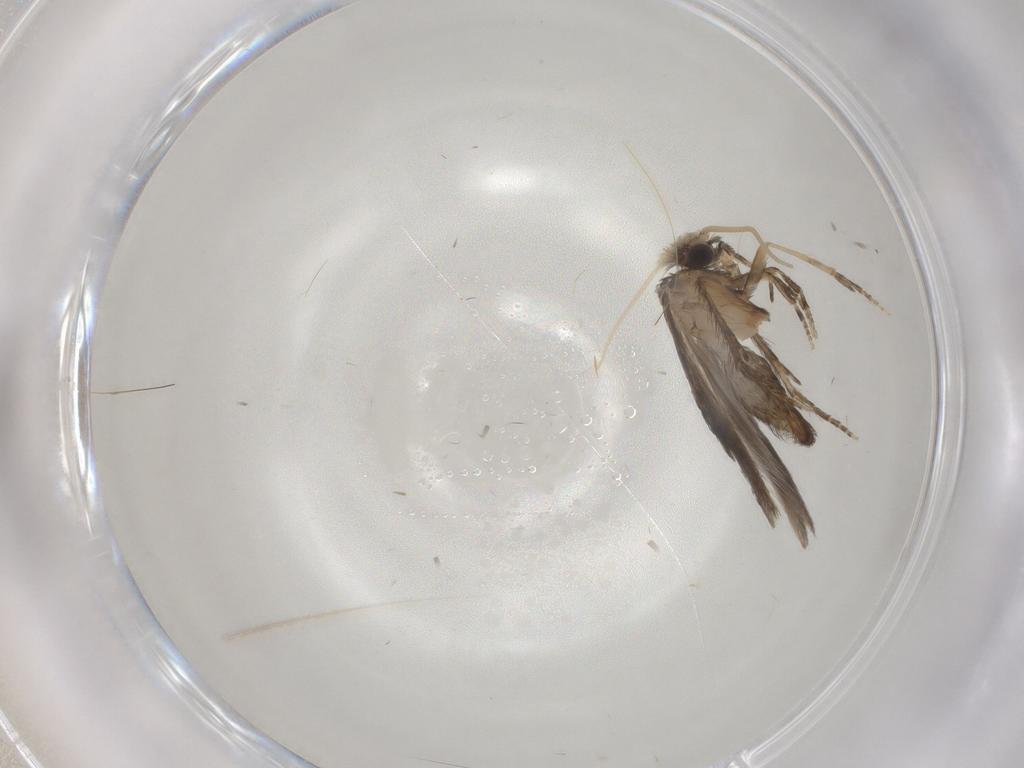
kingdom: Animalia
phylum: Arthropoda
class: Insecta
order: Trichoptera
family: Hydroptilidae
